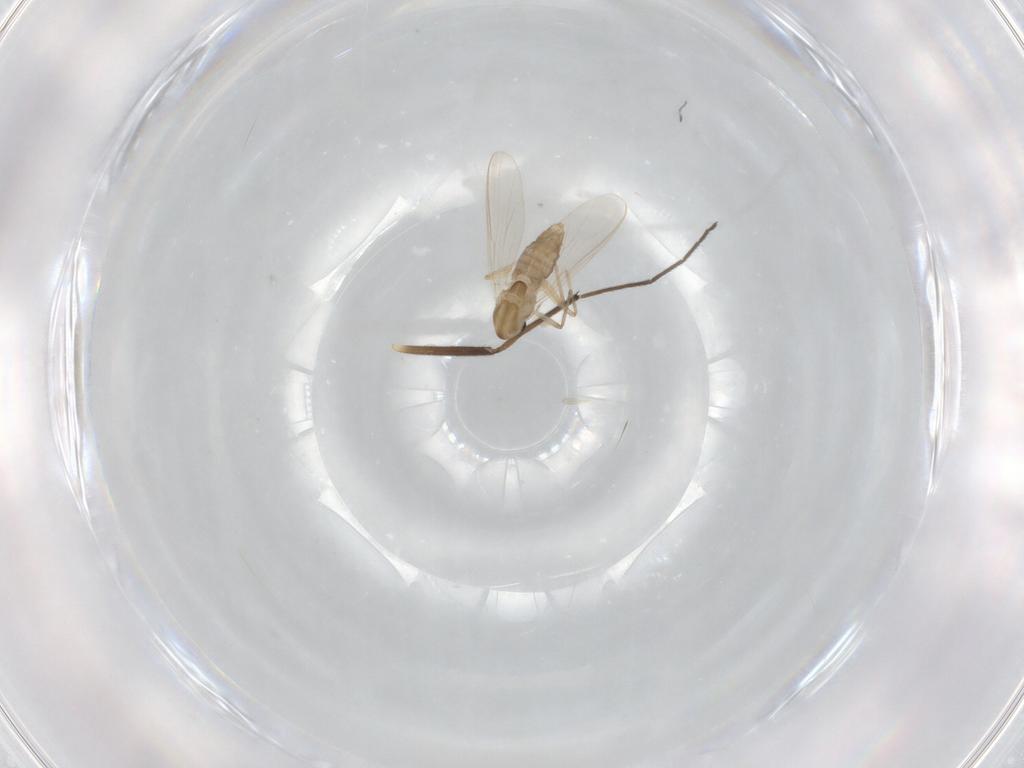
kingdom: Animalia
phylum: Arthropoda
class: Insecta
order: Diptera
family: Chironomidae
